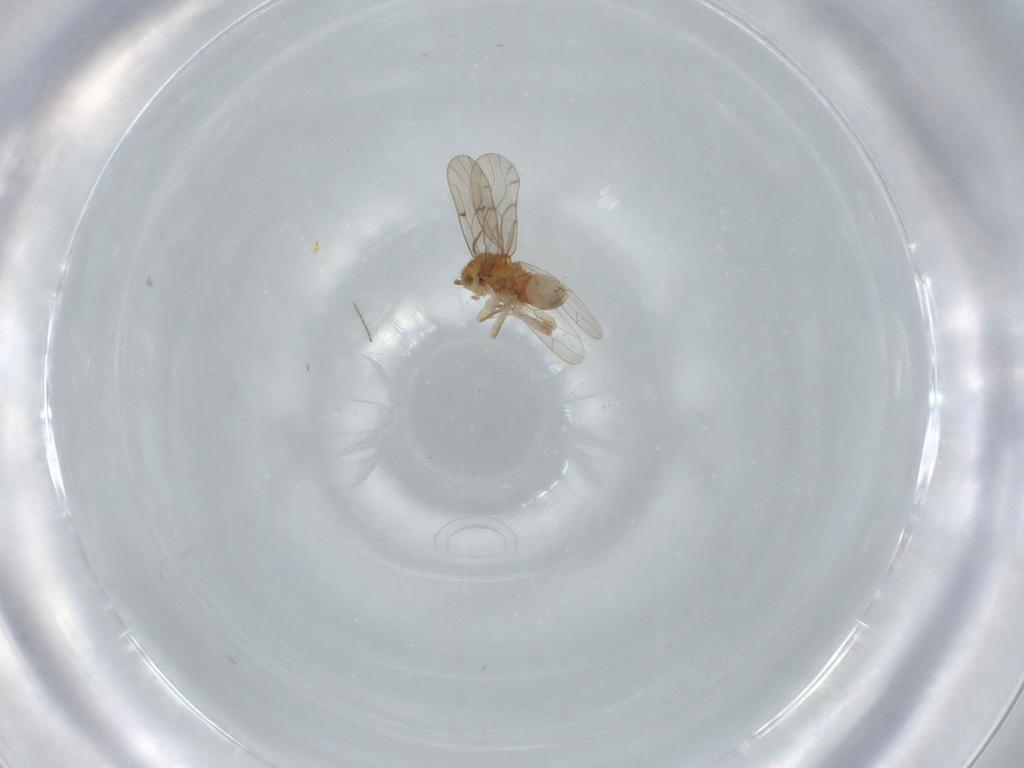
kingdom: Animalia
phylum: Arthropoda
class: Insecta
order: Psocodea
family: Ectopsocidae
